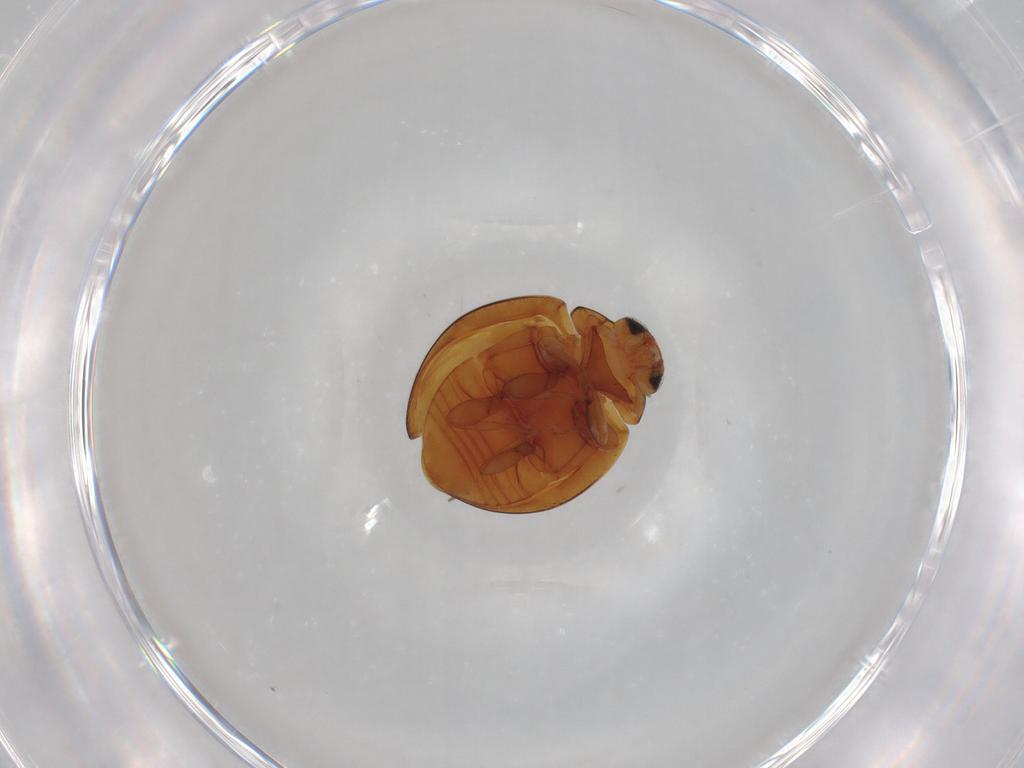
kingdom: Animalia
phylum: Arthropoda
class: Insecta
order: Coleoptera
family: Coccinellidae
